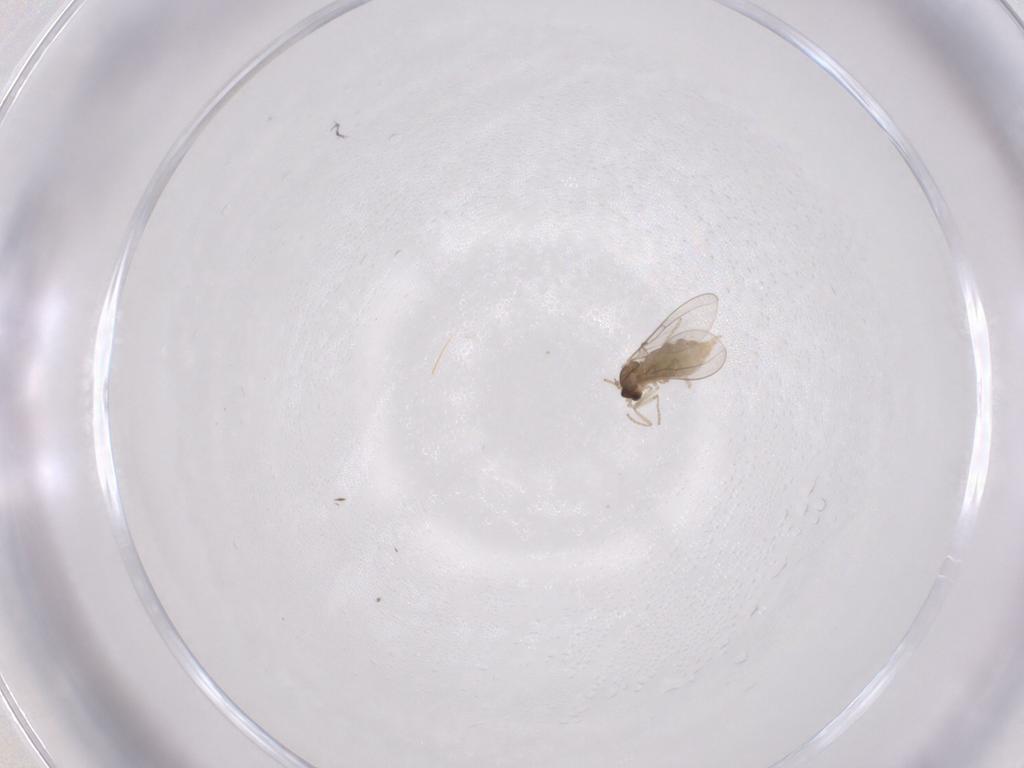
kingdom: Animalia
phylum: Arthropoda
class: Insecta
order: Diptera
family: Cecidomyiidae
